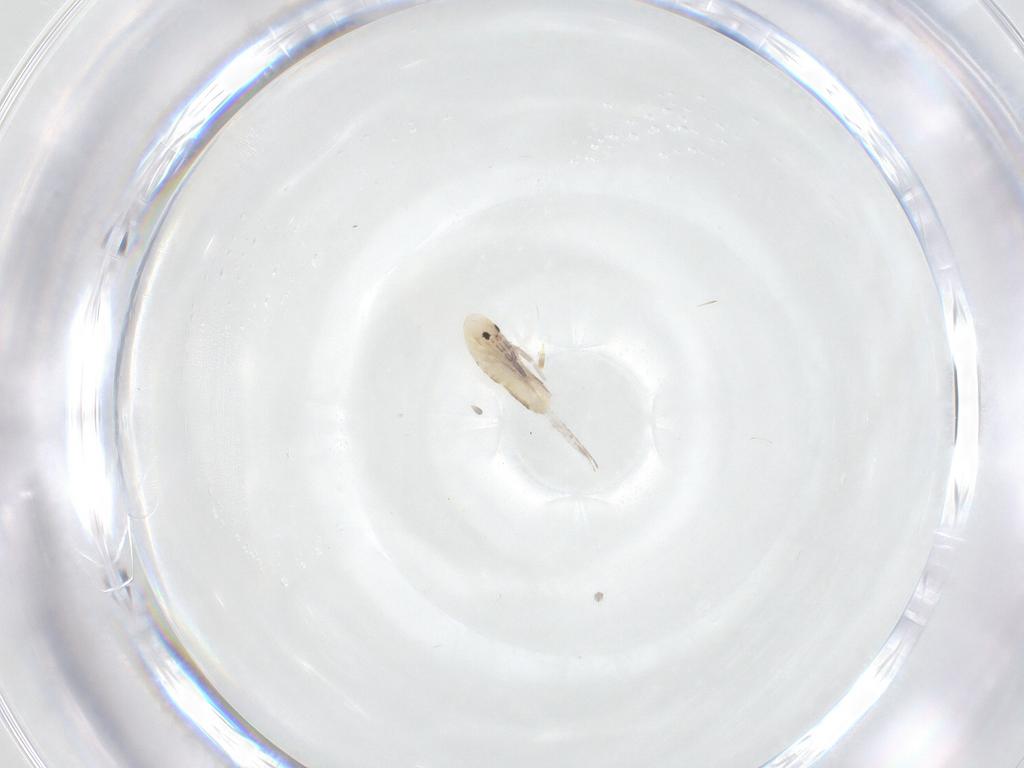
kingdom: Animalia
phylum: Arthropoda
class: Collembola
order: Entomobryomorpha
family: Entomobryidae
